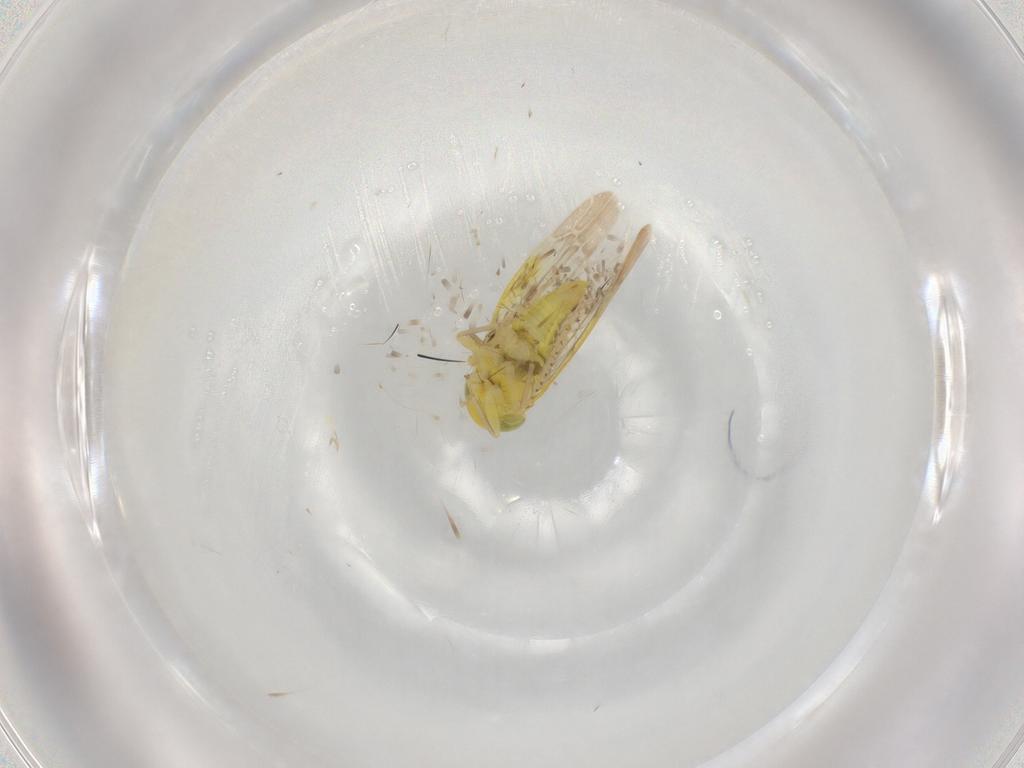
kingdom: Animalia
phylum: Arthropoda
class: Insecta
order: Hemiptera
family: Cicadellidae
